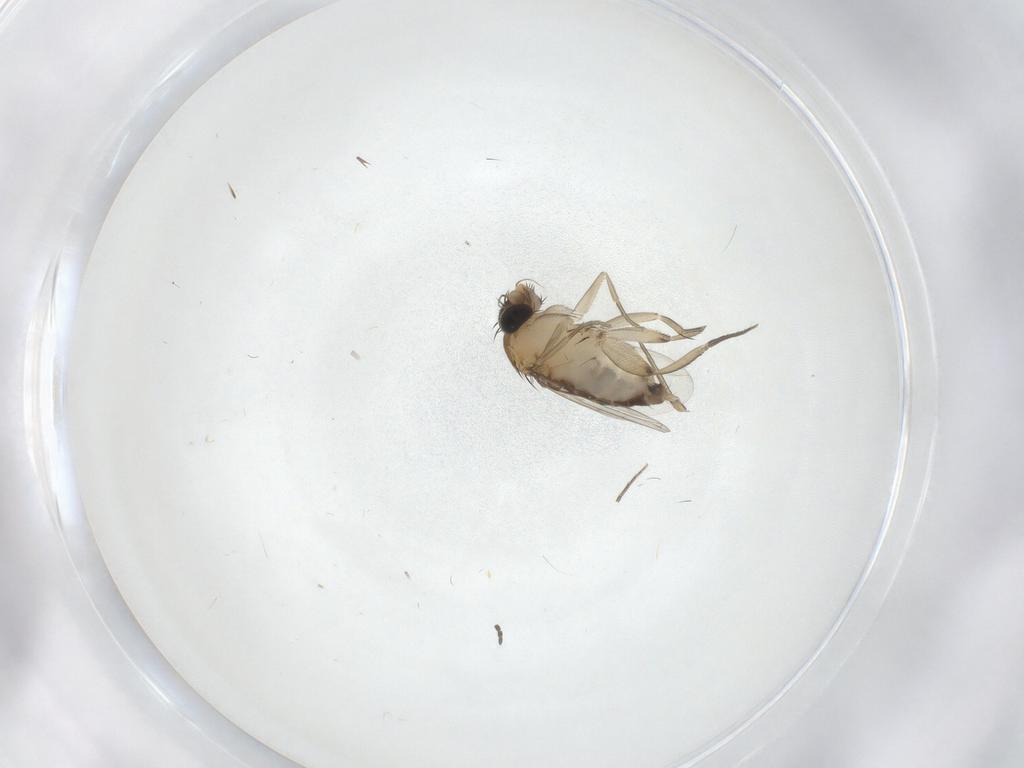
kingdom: Animalia
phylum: Arthropoda
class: Insecta
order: Diptera
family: Phoridae
